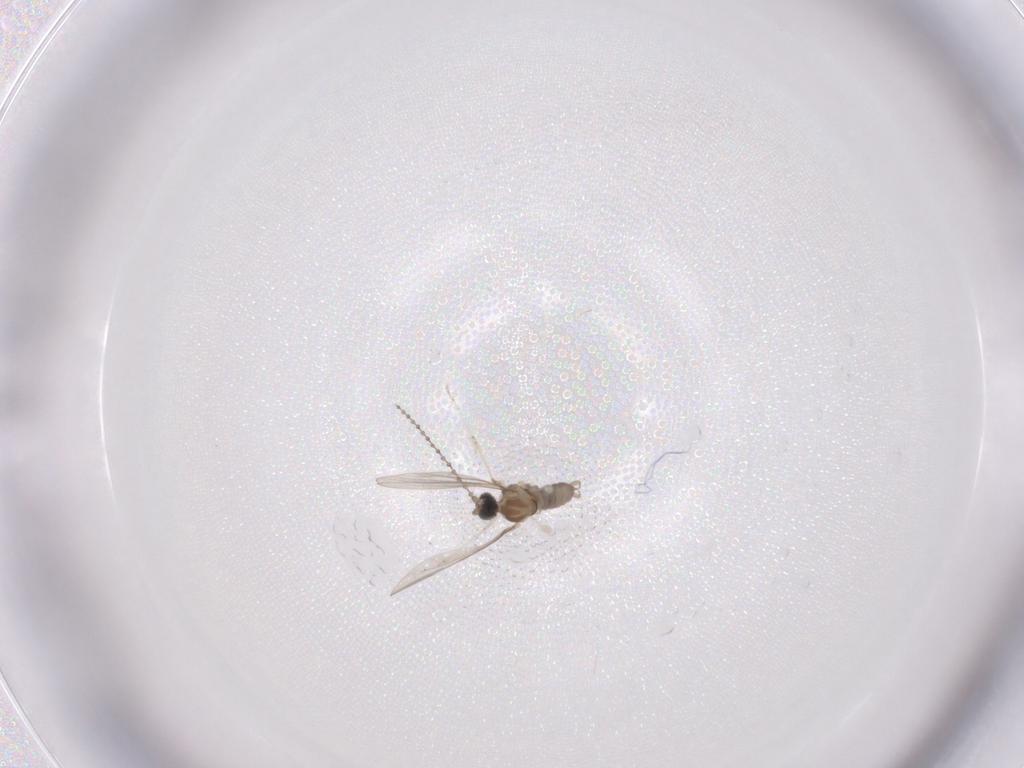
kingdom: Animalia
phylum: Arthropoda
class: Insecta
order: Diptera
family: Cecidomyiidae
